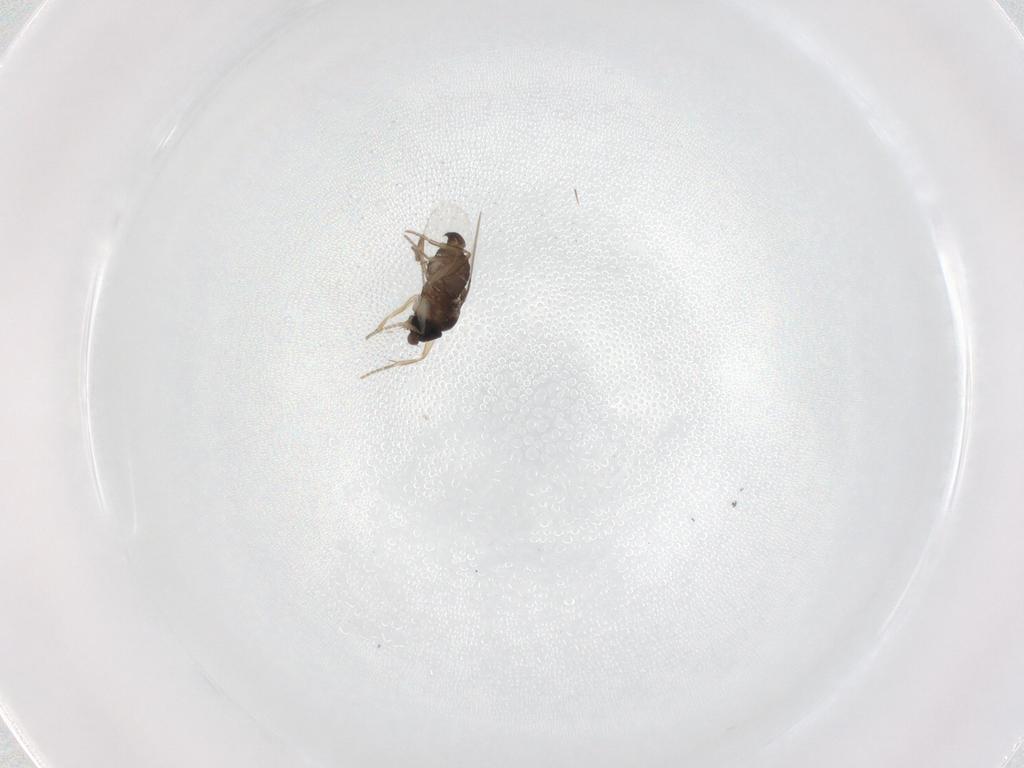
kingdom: Animalia
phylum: Arthropoda
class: Insecta
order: Diptera
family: Phoridae
